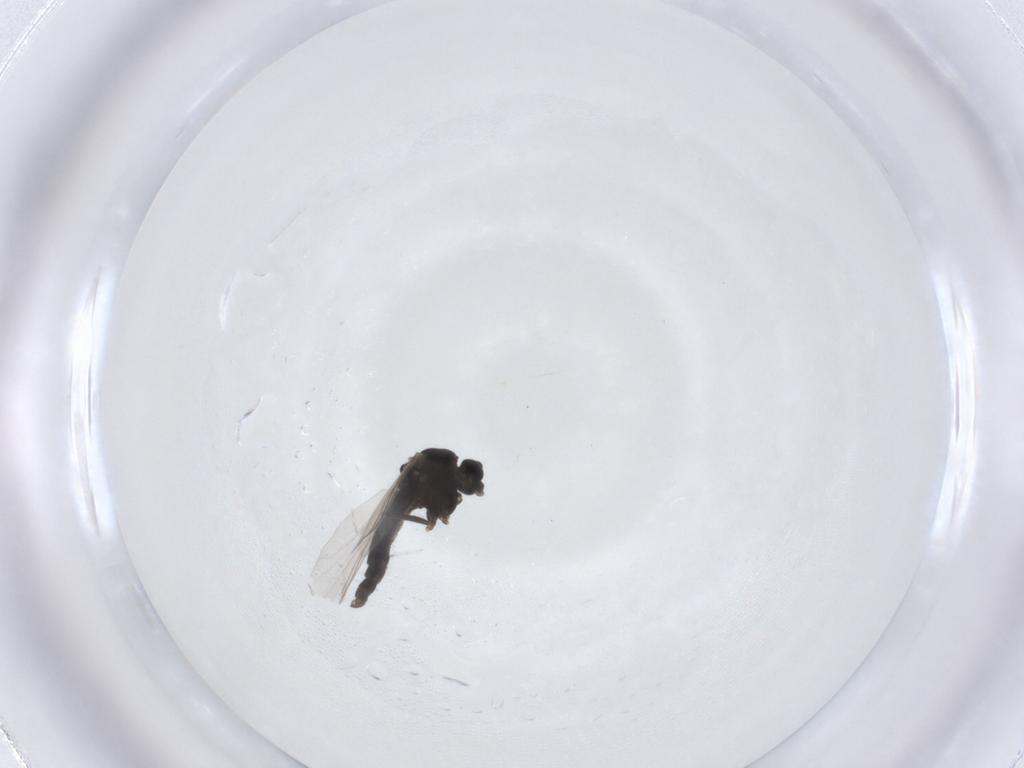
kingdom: Animalia
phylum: Arthropoda
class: Insecta
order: Diptera
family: Chironomidae
